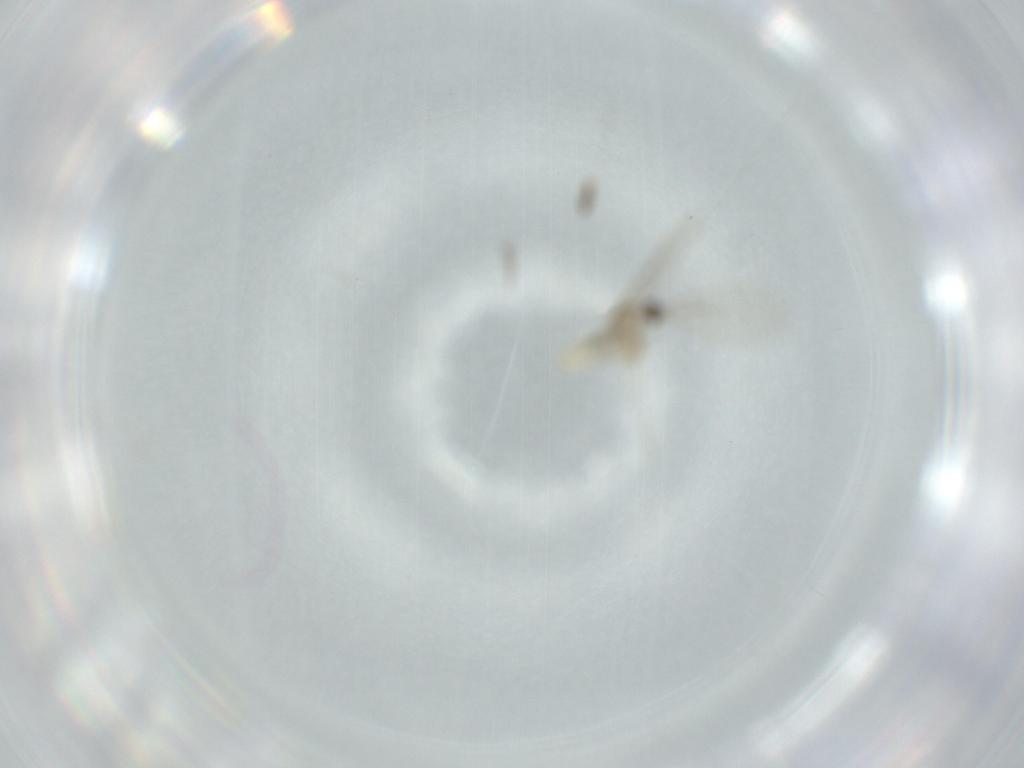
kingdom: Animalia
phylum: Arthropoda
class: Insecta
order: Diptera
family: Cecidomyiidae
